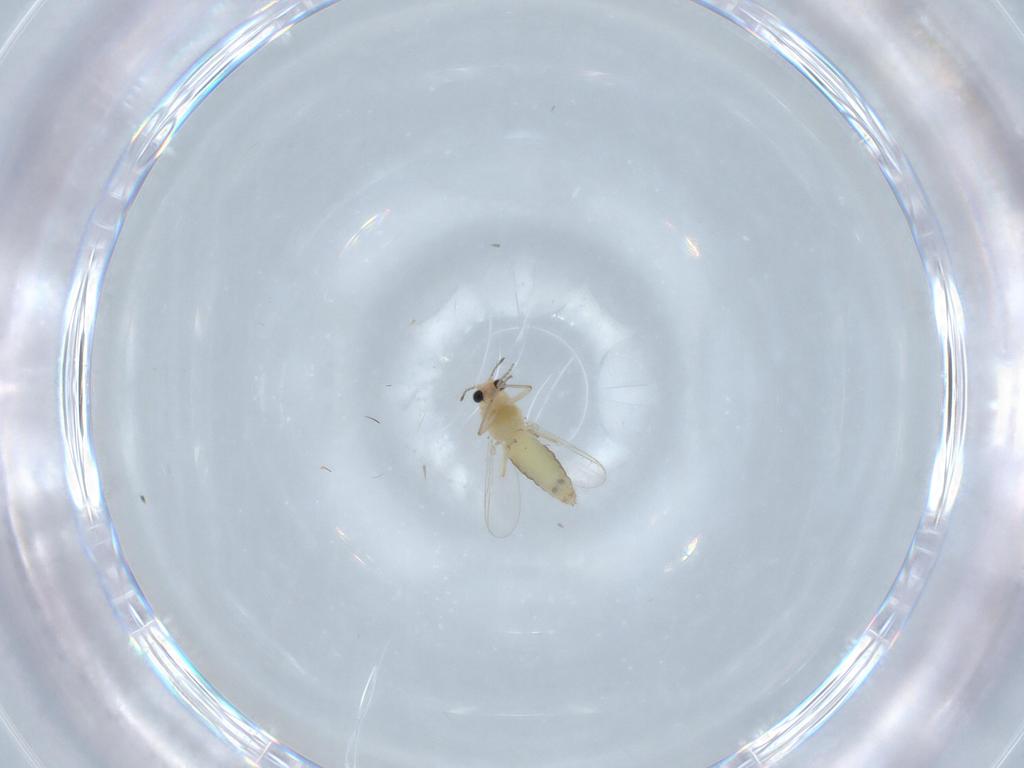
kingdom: Animalia
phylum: Arthropoda
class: Insecta
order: Diptera
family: Chironomidae
